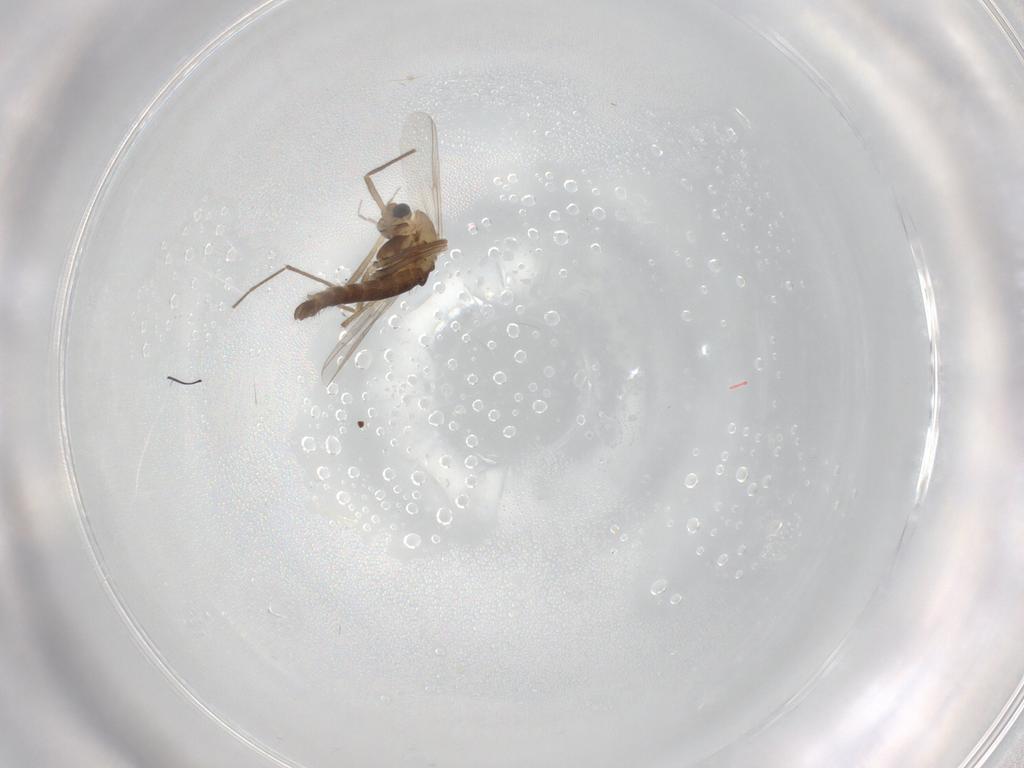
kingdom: Animalia
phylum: Arthropoda
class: Insecta
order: Diptera
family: Chironomidae
